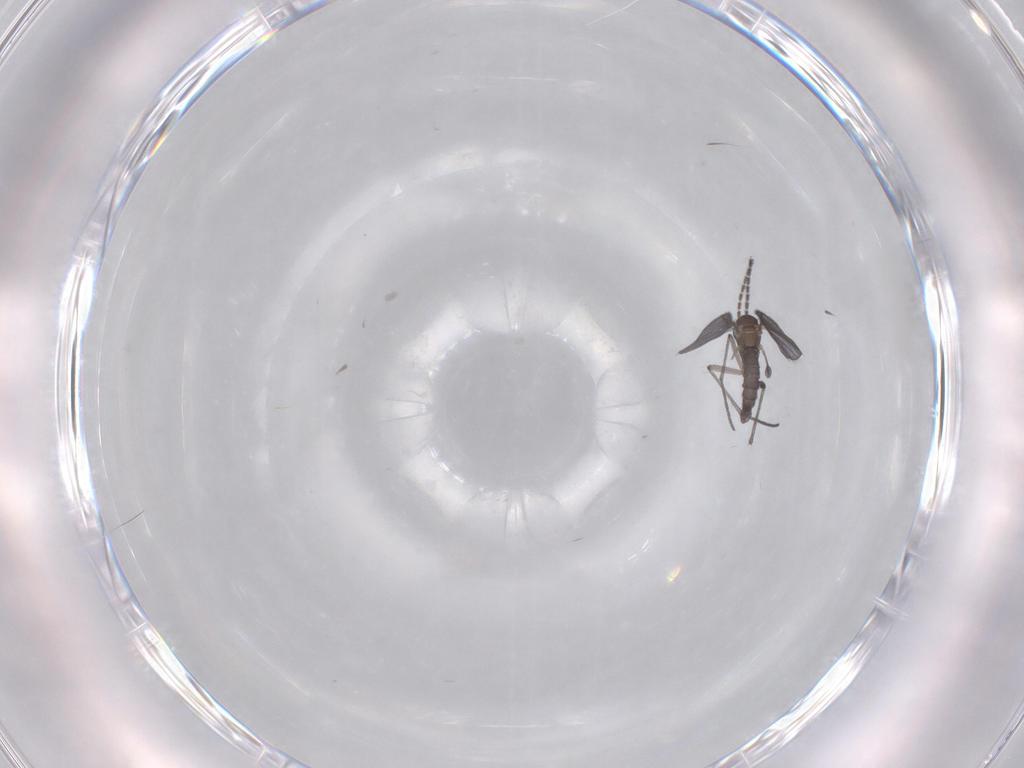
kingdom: Animalia
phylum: Arthropoda
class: Insecta
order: Diptera
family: Sciaridae
